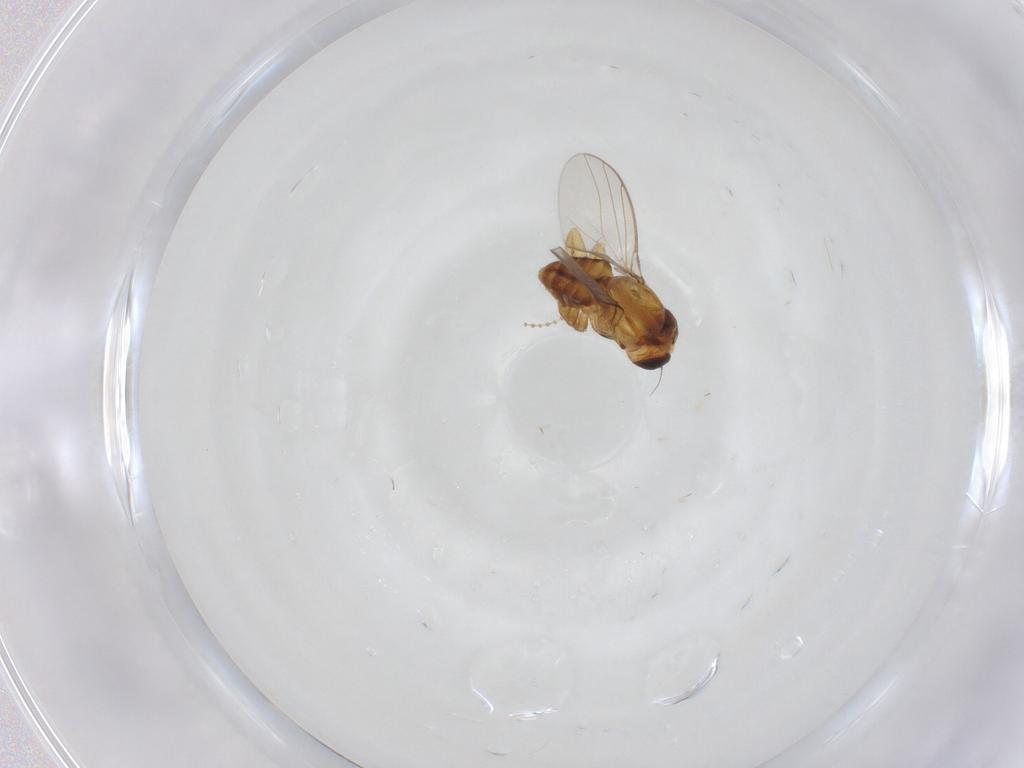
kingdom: Animalia
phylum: Arthropoda
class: Insecta
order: Diptera
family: Chloropidae
